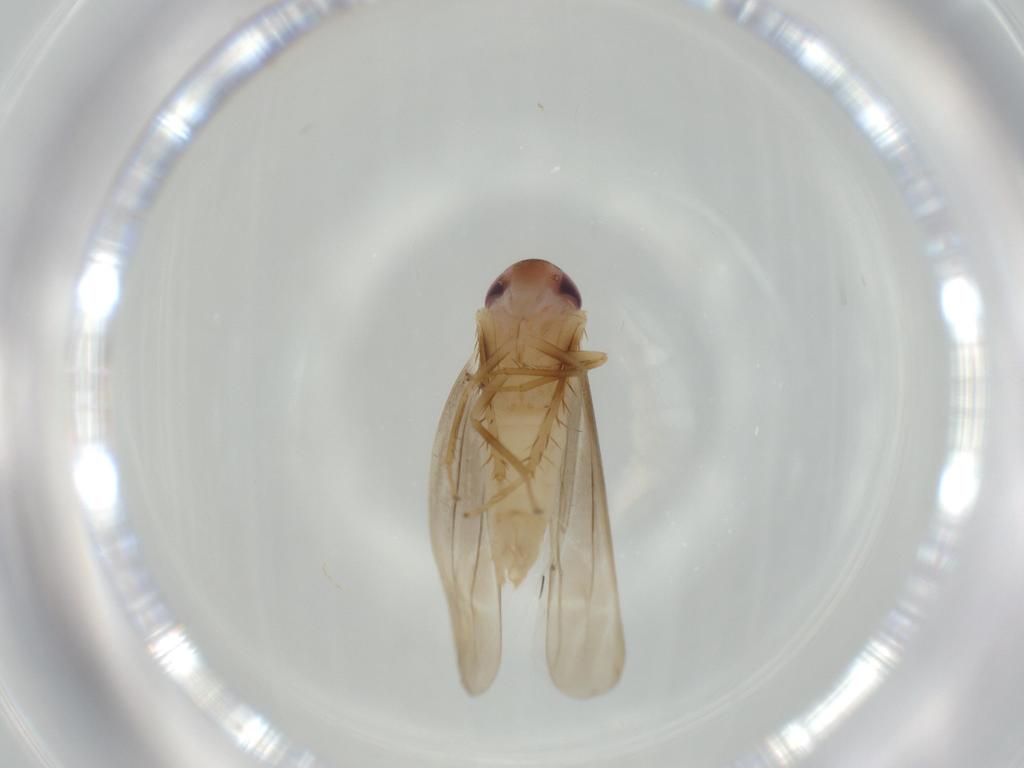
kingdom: Animalia
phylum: Arthropoda
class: Insecta
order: Hemiptera
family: Cicadellidae
